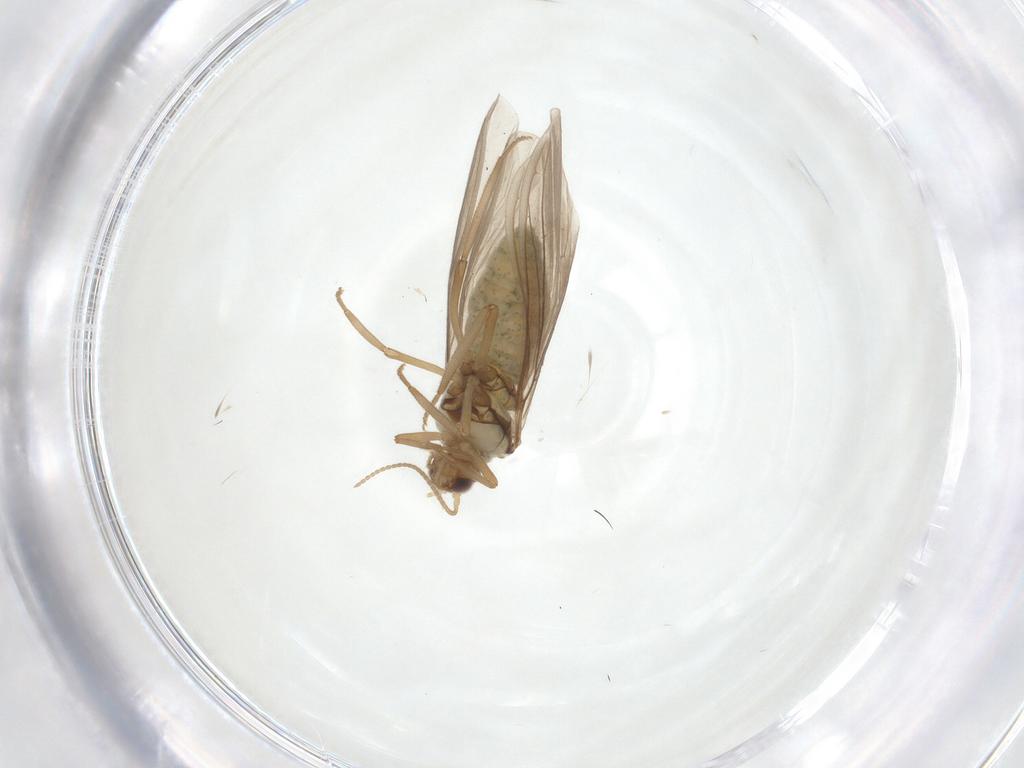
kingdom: Animalia
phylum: Arthropoda
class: Insecta
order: Neuroptera
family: Coniopterygidae
